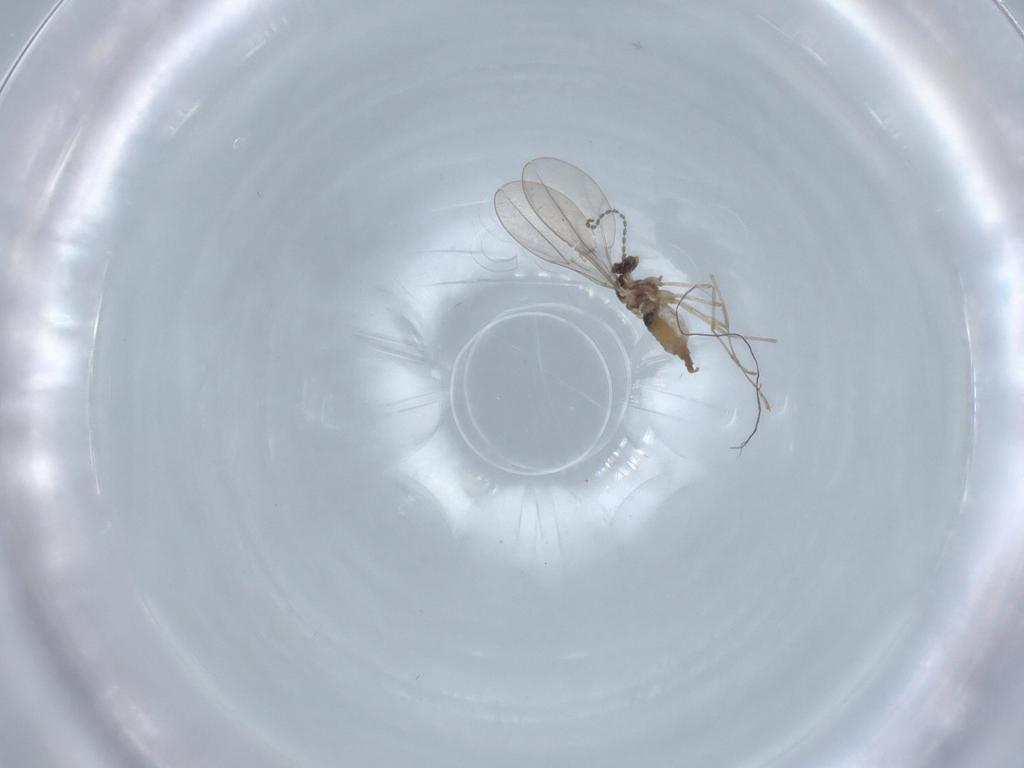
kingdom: Animalia
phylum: Arthropoda
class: Insecta
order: Diptera
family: Cecidomyiidae
